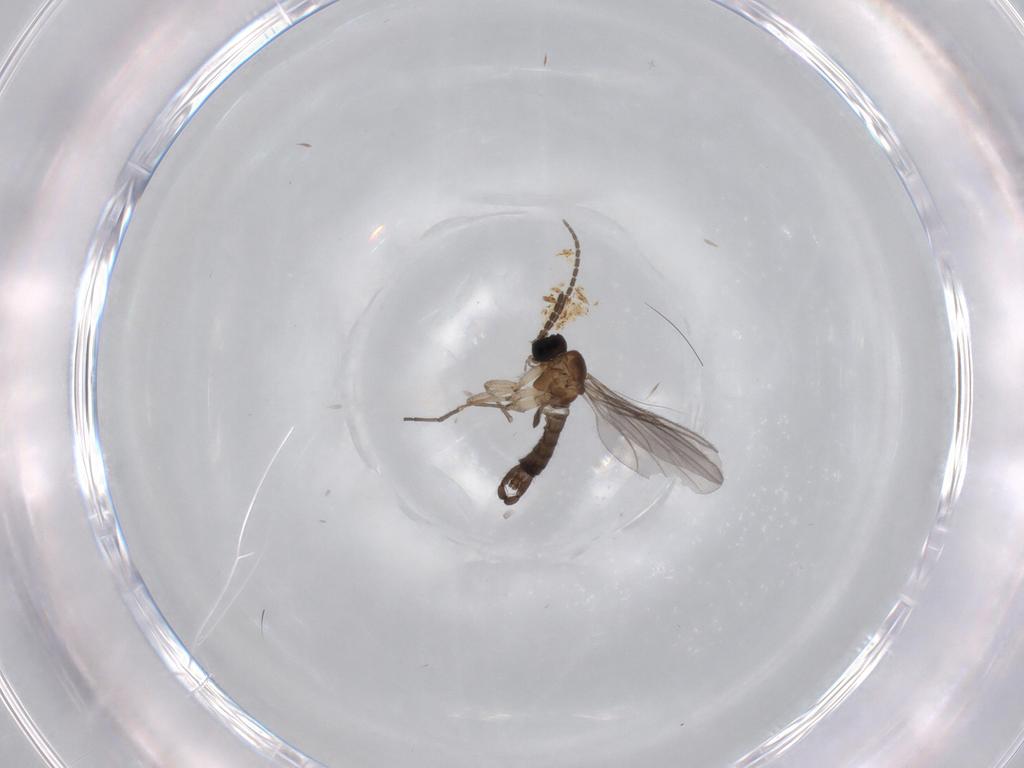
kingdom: Animalia
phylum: Arthropoda
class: Insecta
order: Diptera
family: Sciaridae
